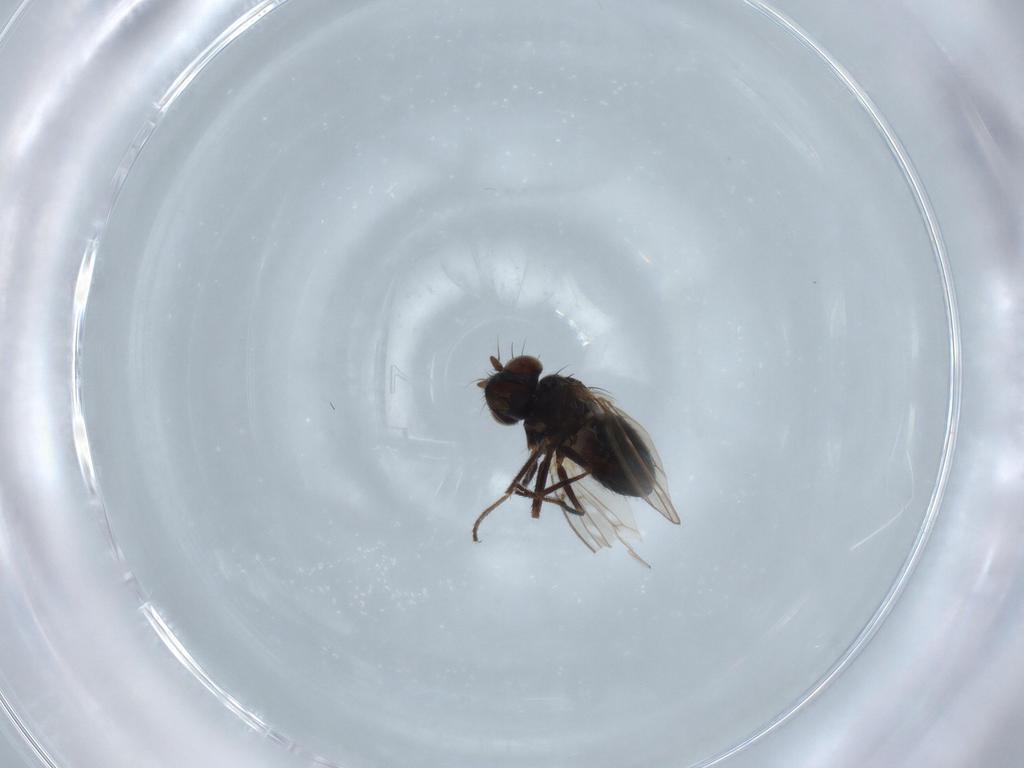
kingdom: Animalia
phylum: Arthropoda
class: Insecta
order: Diptera
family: Ephydridae
